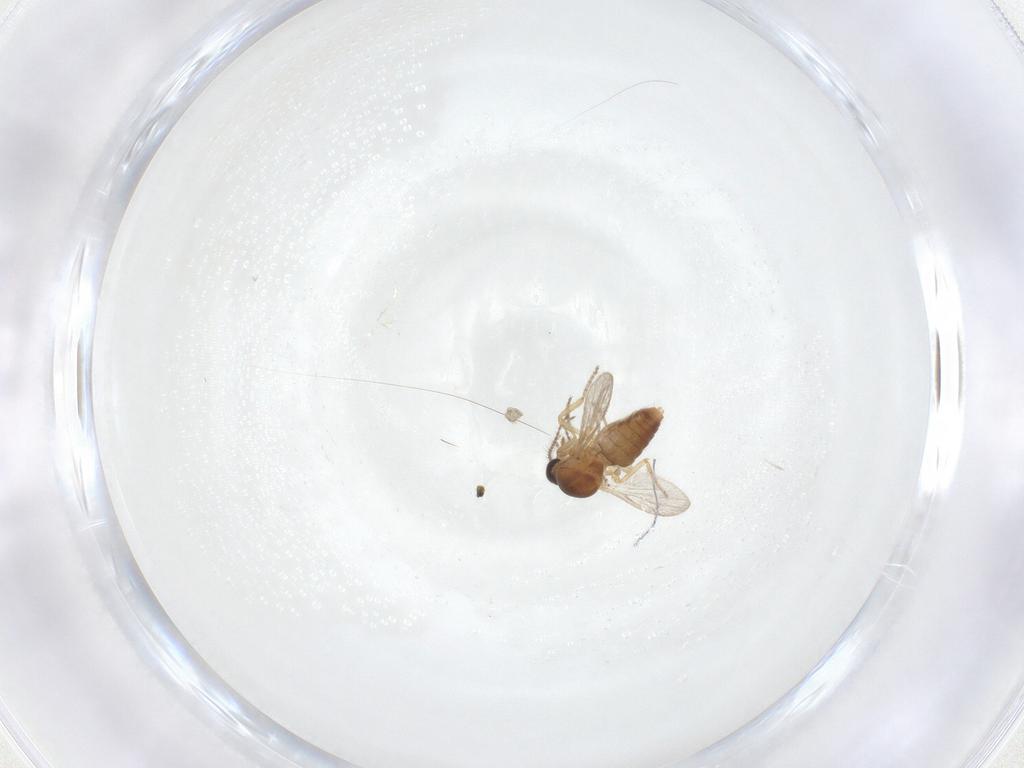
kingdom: Animalia
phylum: Arthropoda
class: Insecta
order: Diptera
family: Ceratopogonidae
